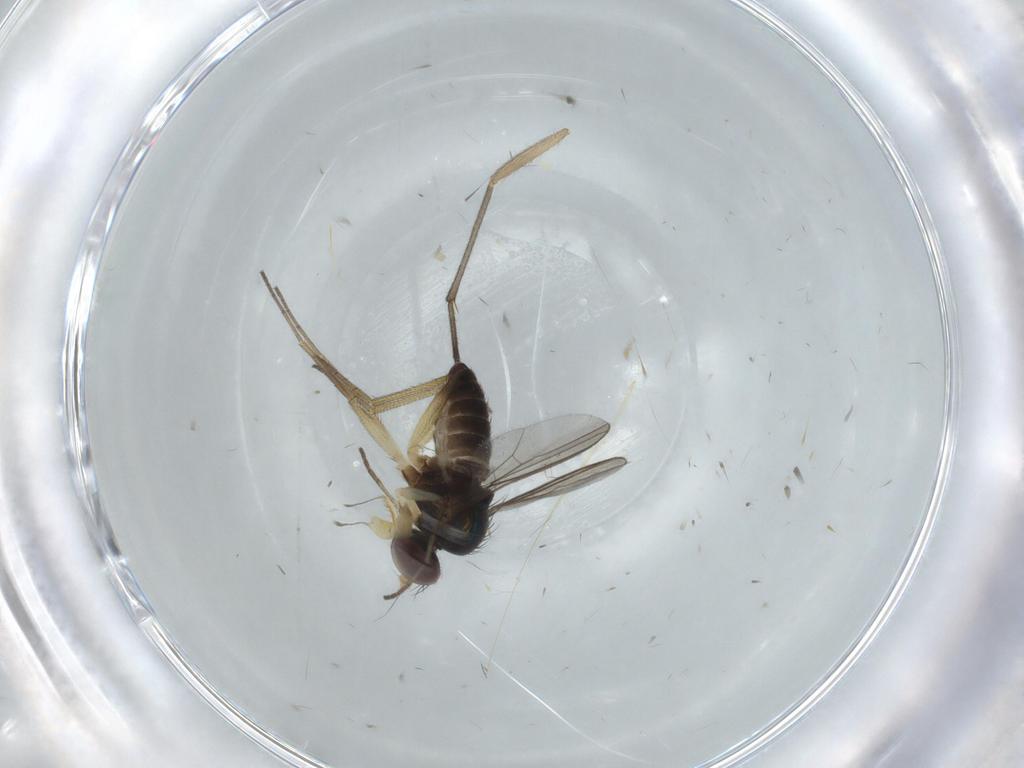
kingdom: Animalia
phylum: Arthropoda
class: Insecta
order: Diptera
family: Dolichopodidae
